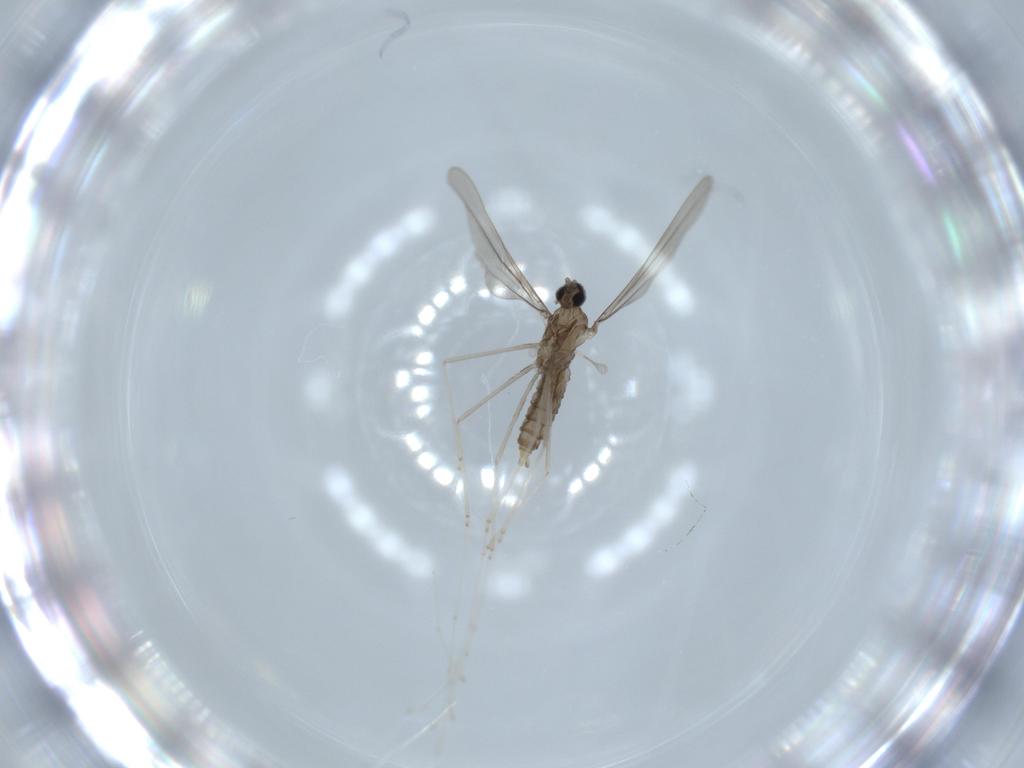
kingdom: Animalia
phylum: Arthropoda
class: Insecta
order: Diptera
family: Cecidomyiidae
